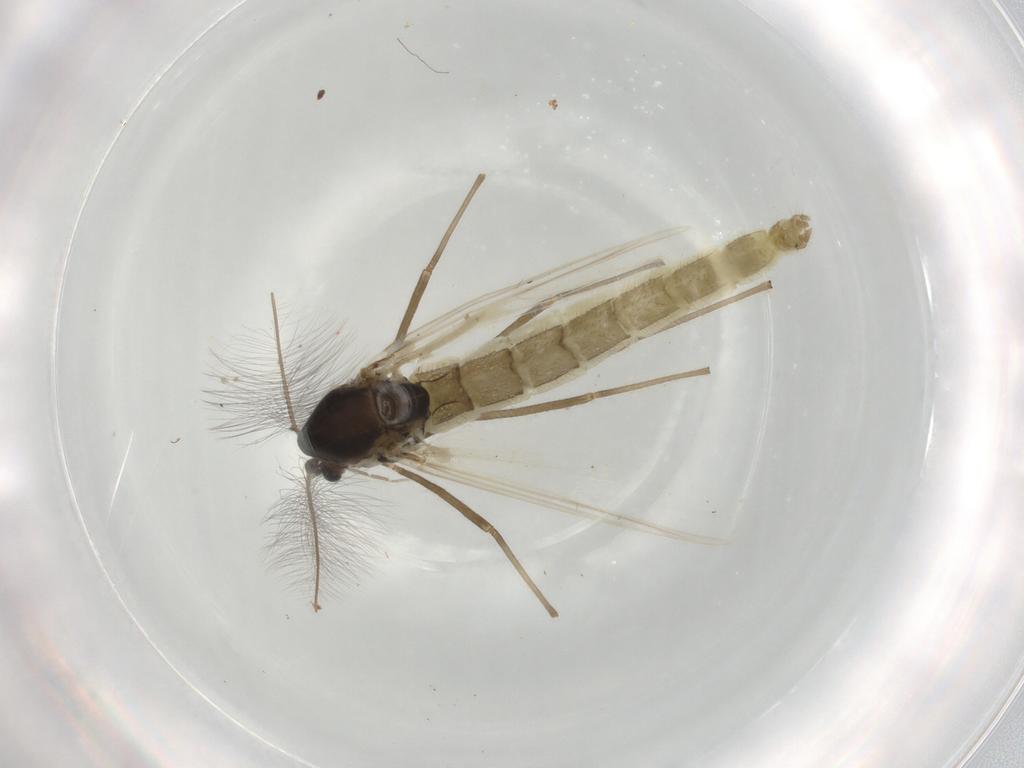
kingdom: Animalia
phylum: Arthropoda
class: Insecta
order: Diptera
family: Chironomidae
